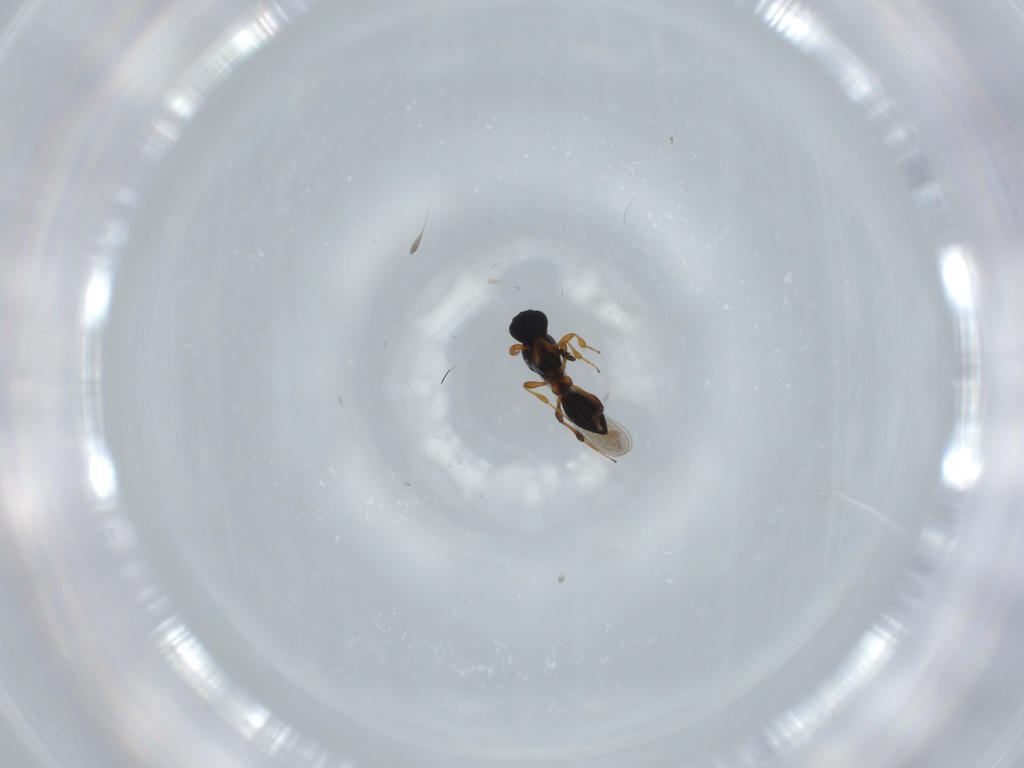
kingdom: Animalia
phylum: Arthropoda
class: Insecta
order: Hymenoptera
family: Platygastridae
